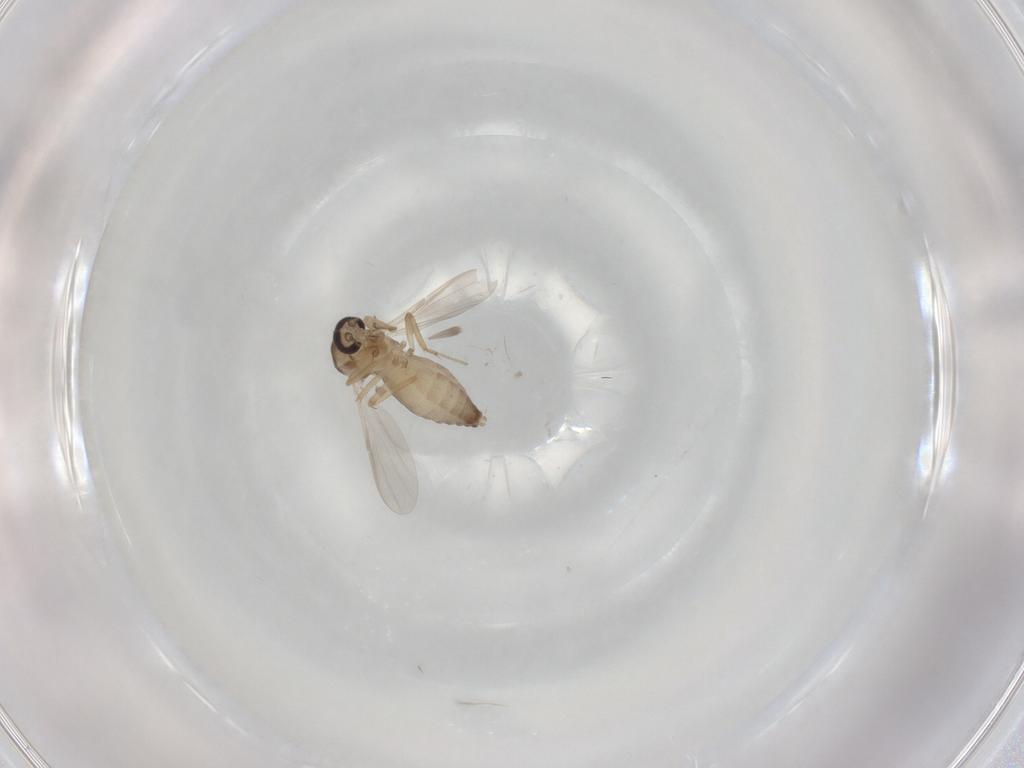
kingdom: Animalia
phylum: Arthropoda
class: Insecta
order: Diptera
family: Ceratopogonidae
